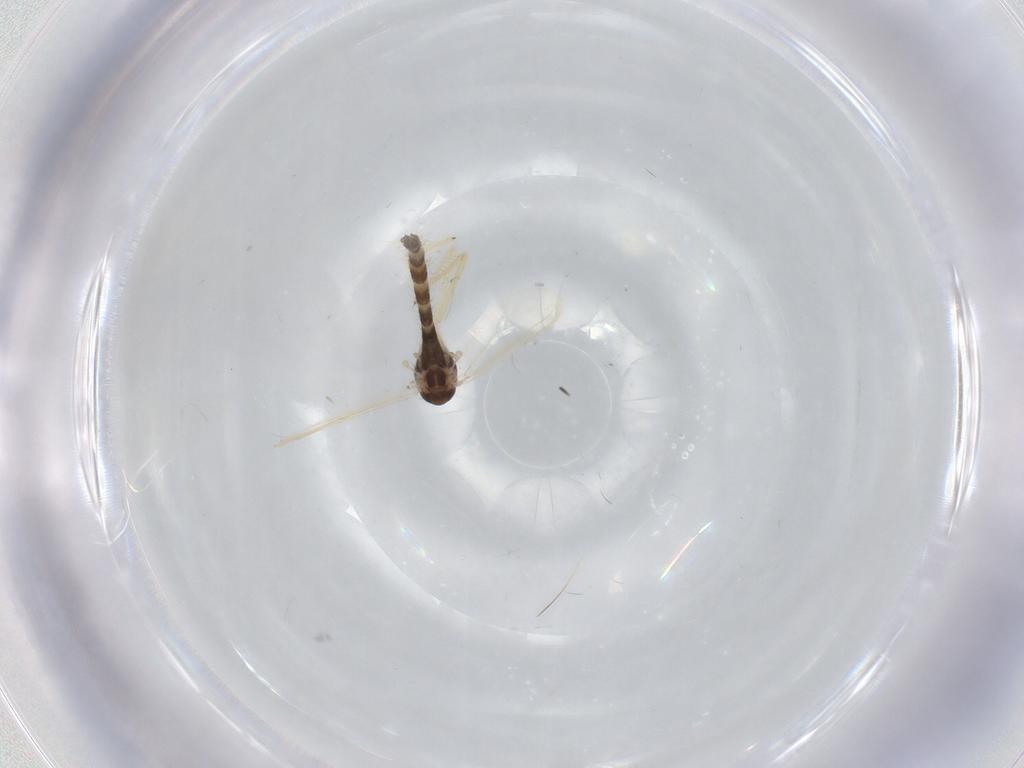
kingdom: Animalia
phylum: Arthropoda
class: Insecta
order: Diptera
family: Chironomidae
